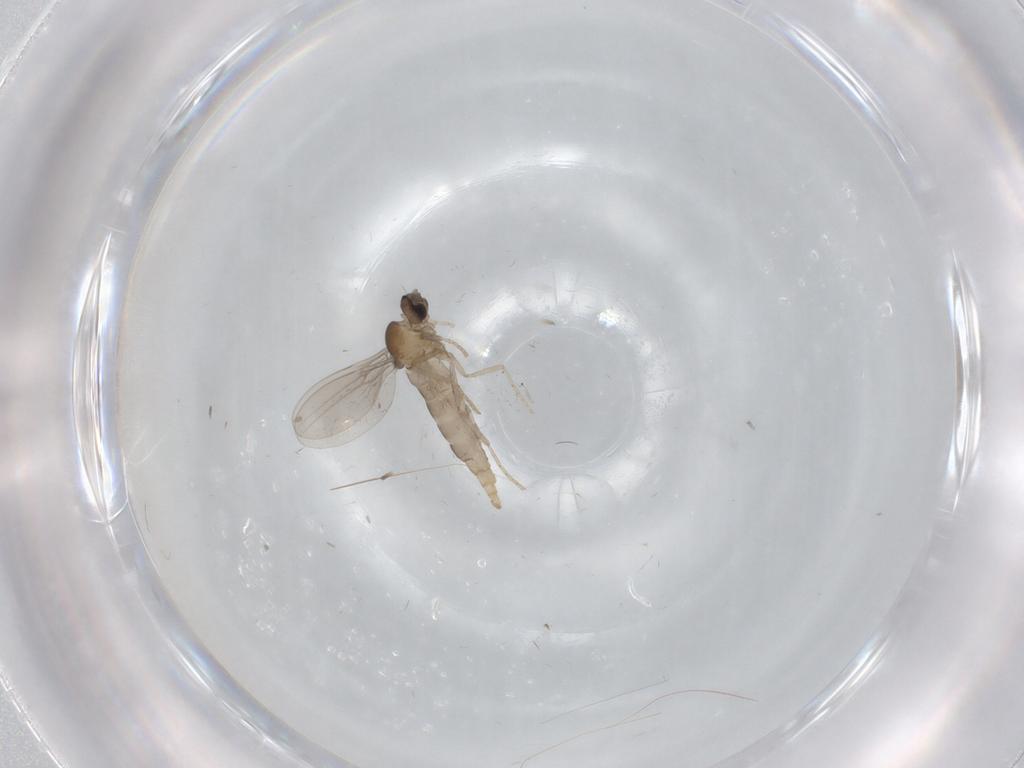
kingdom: Animalia
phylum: Arthropoda
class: Insecta
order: Diptera
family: Cecidomyiidae
